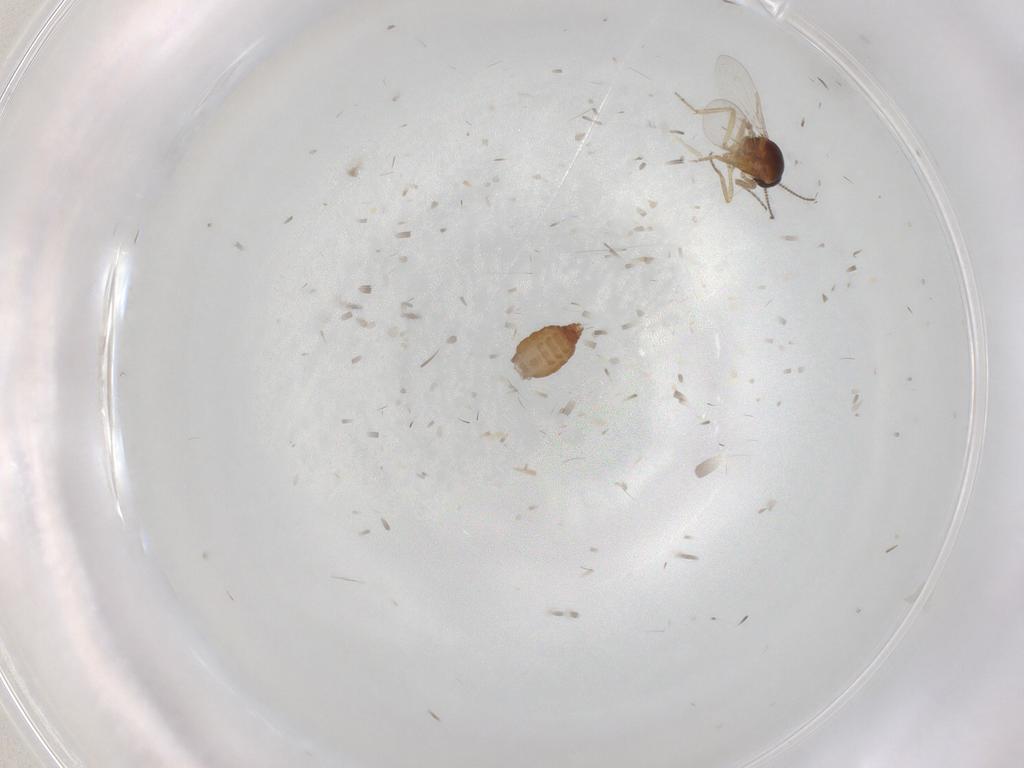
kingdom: Animalia
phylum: Arthropoda
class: Insecta
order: Diptera
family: Ceratopogonidae
